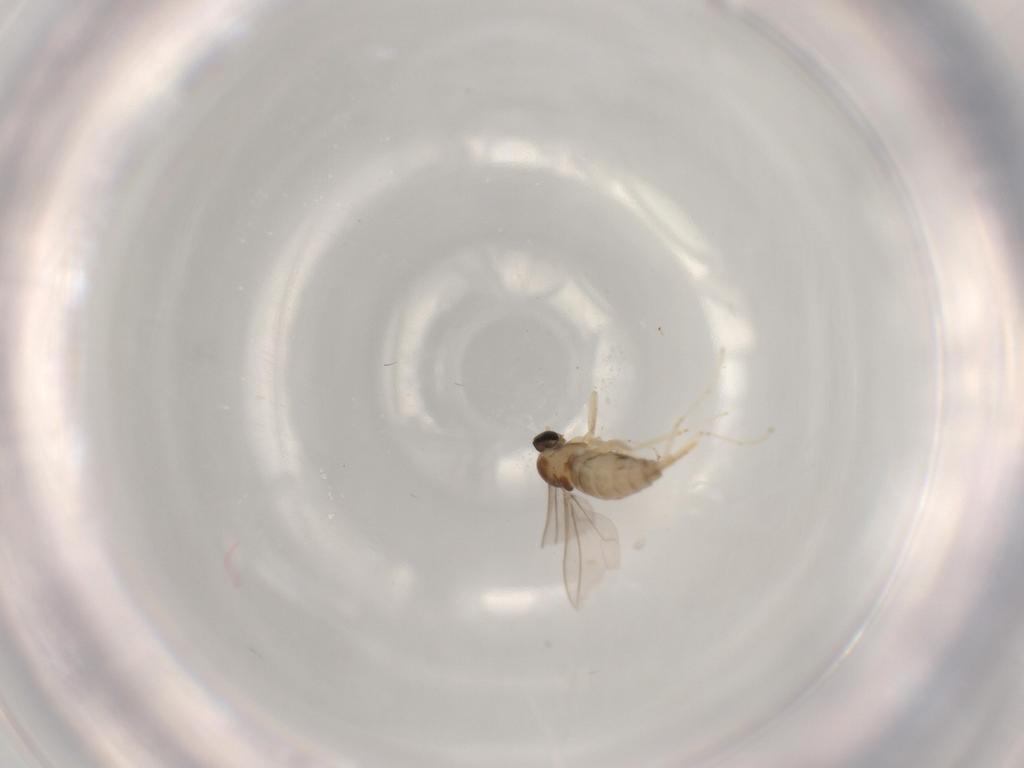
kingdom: Animalia
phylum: Arthropoda
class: Insecta
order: Diptera
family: Cecidomyiidae
